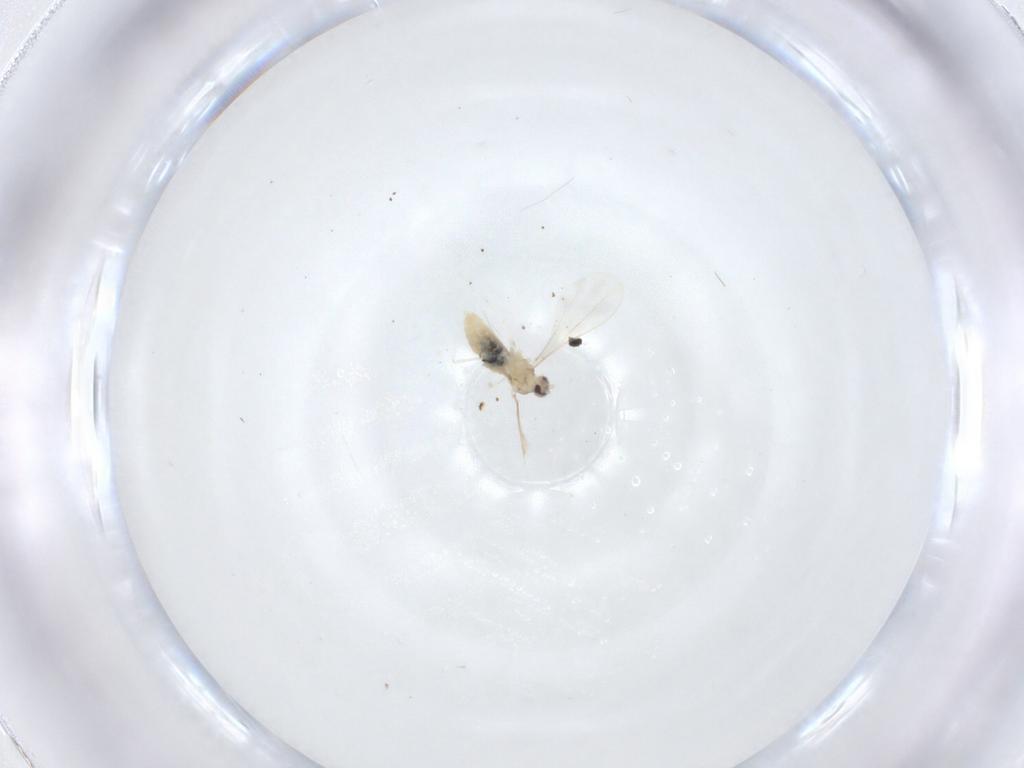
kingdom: Animalia
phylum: Arthropoda
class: Insecta
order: Diptera
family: Cecidomyiidae
